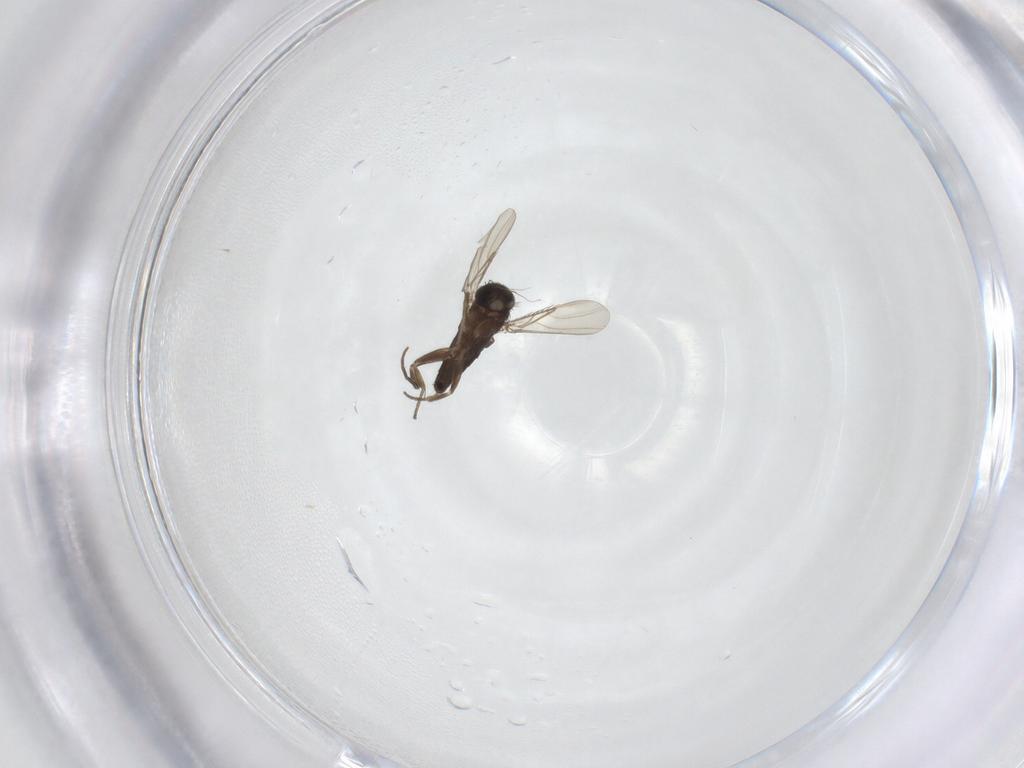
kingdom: Animalia
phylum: Arthropoda
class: Insecta
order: Diptera
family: Phoridae
